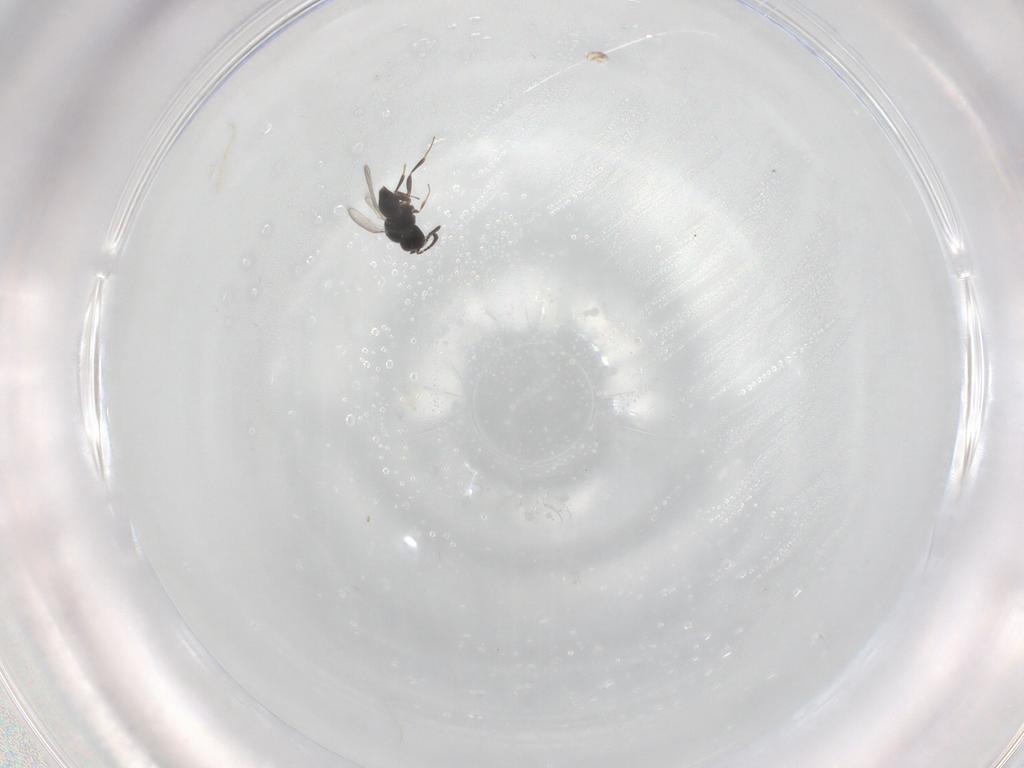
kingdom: Animalia
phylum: Arthropoda
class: Insecta
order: Hymenoptera
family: Ceraphronidae
